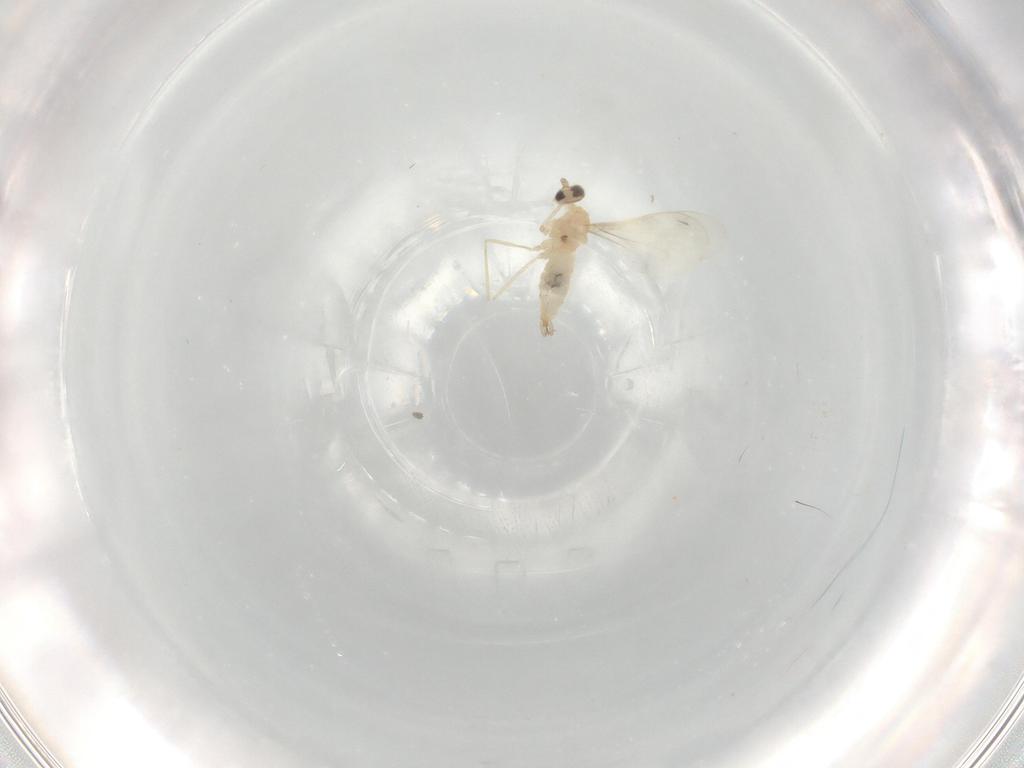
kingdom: Animalia
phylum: Arthropoda
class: Insecta
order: Diptera
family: Cecidomyiidae
